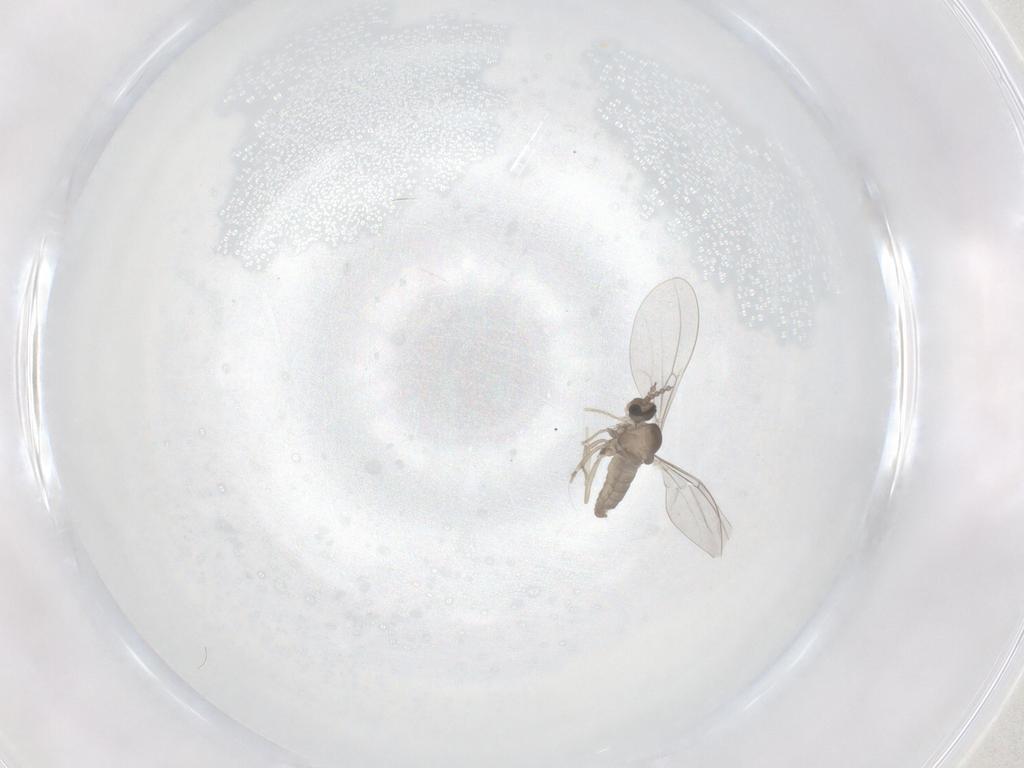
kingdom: Animalia
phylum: Arthropoda
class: Insecta
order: Diptera
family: Cecidomyiidae
